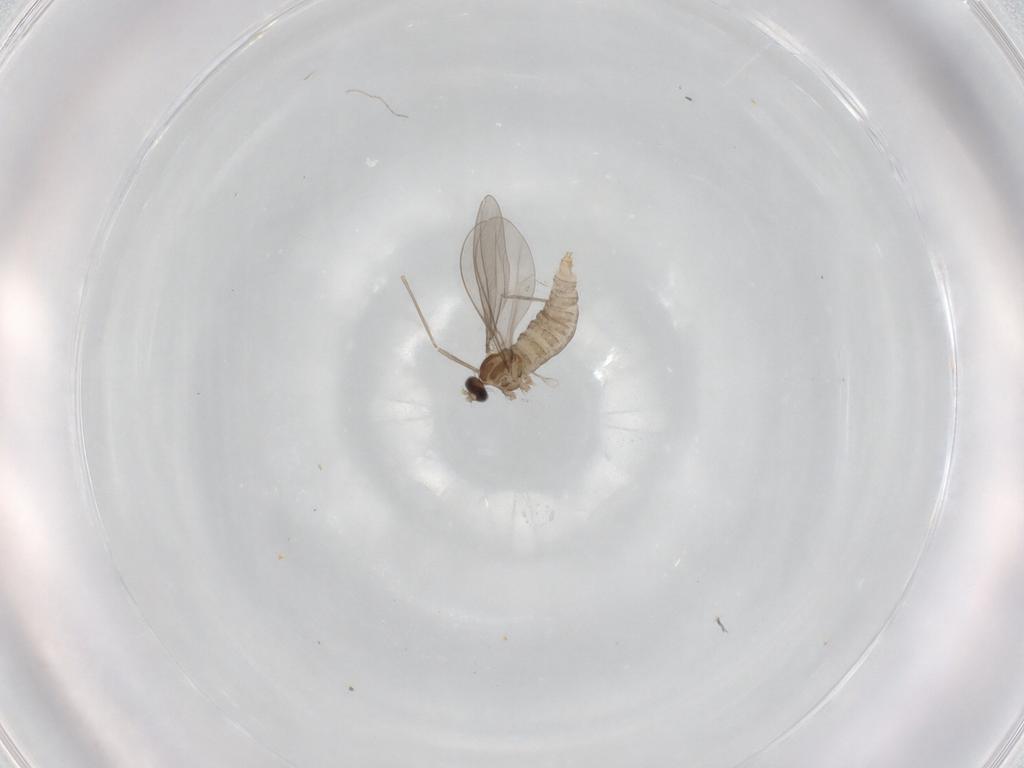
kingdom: Animalia
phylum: Arthropoda
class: Insecta
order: Diptera
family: Cecidomyiidae
